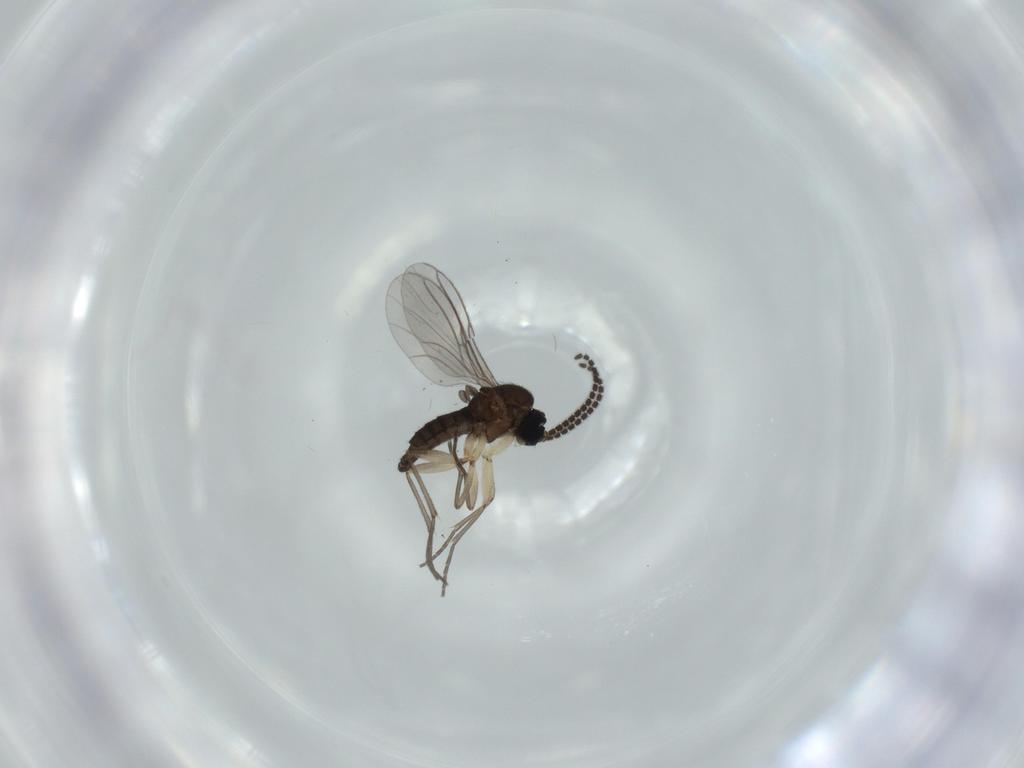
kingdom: Animalia
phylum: Arthropoda
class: Insecta
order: Diptera
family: Sciaridae
